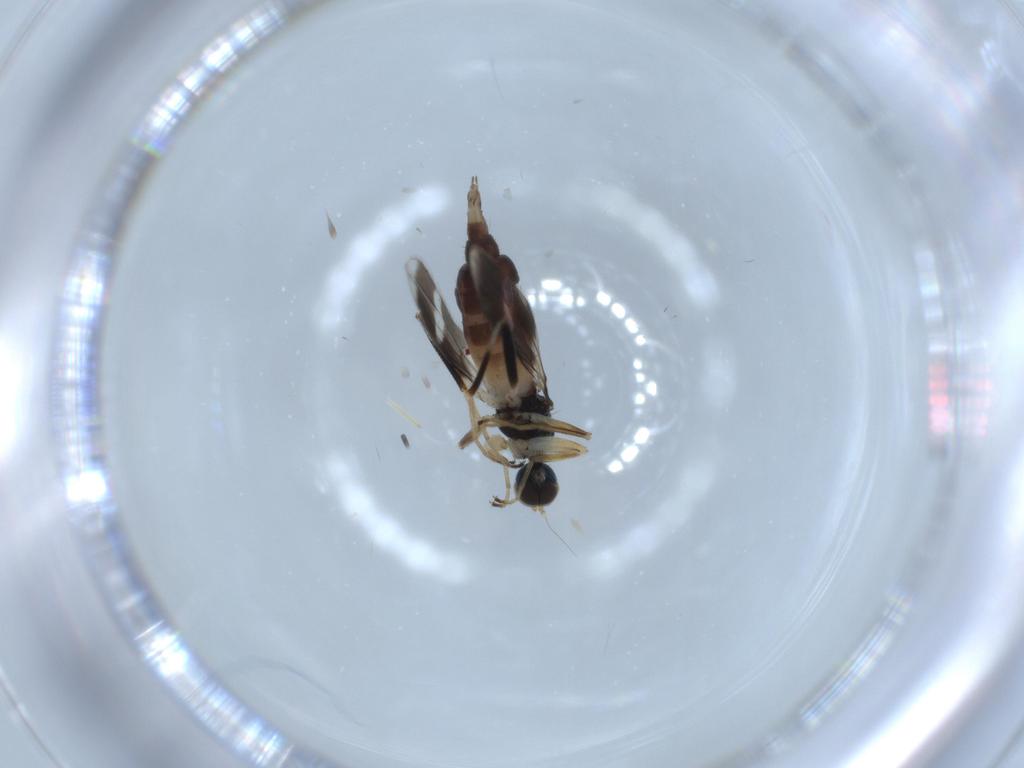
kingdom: Animalia
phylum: Arthropoda
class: Insecta
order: Diptera
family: Hybotidae
